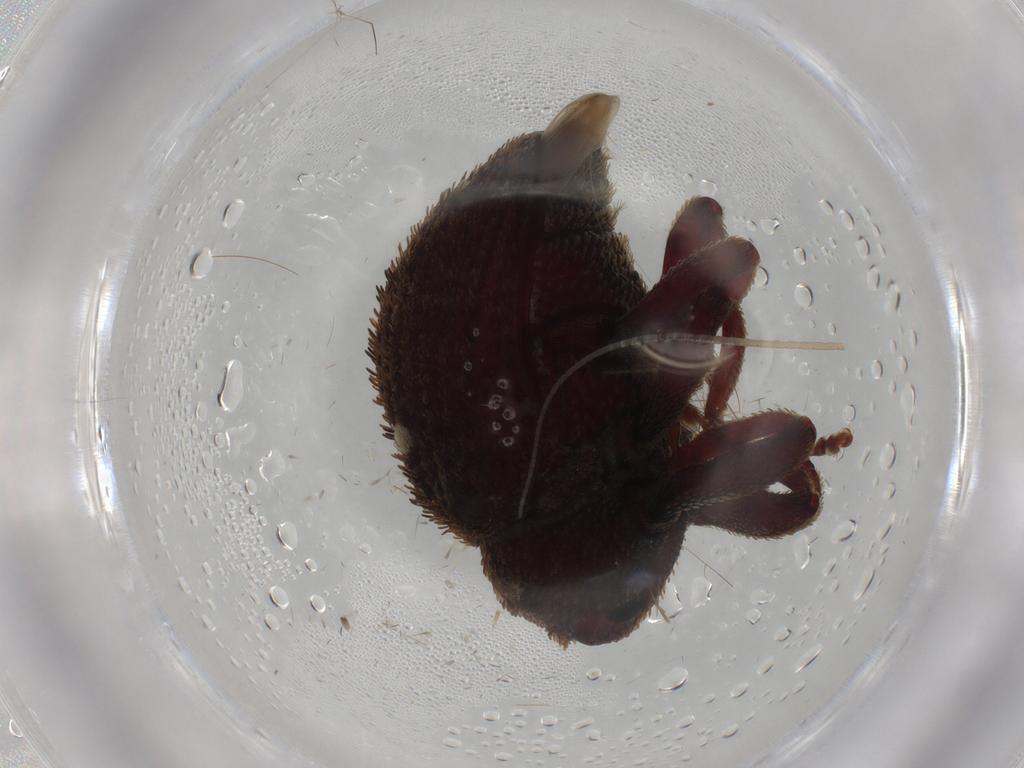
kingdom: Animalia
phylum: Arthropoda
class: Insecta
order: Coleoptera
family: Curculionidae
